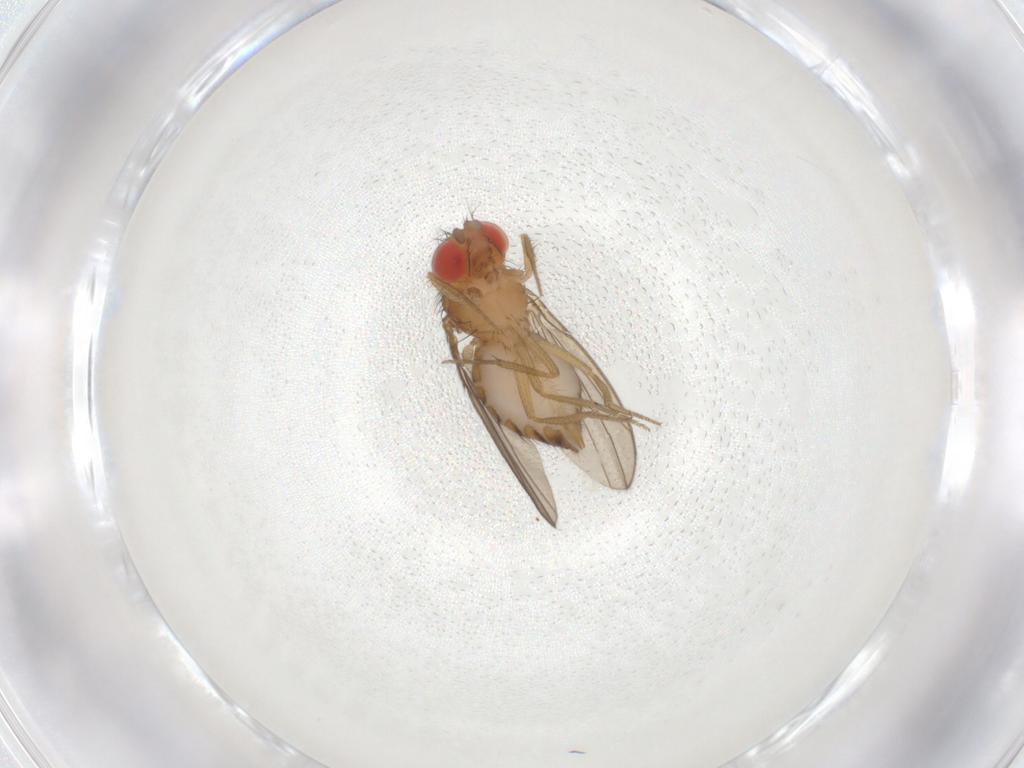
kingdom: Animalia
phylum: Arthropoda
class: Insecta
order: Diptera
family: Drosophilidae
